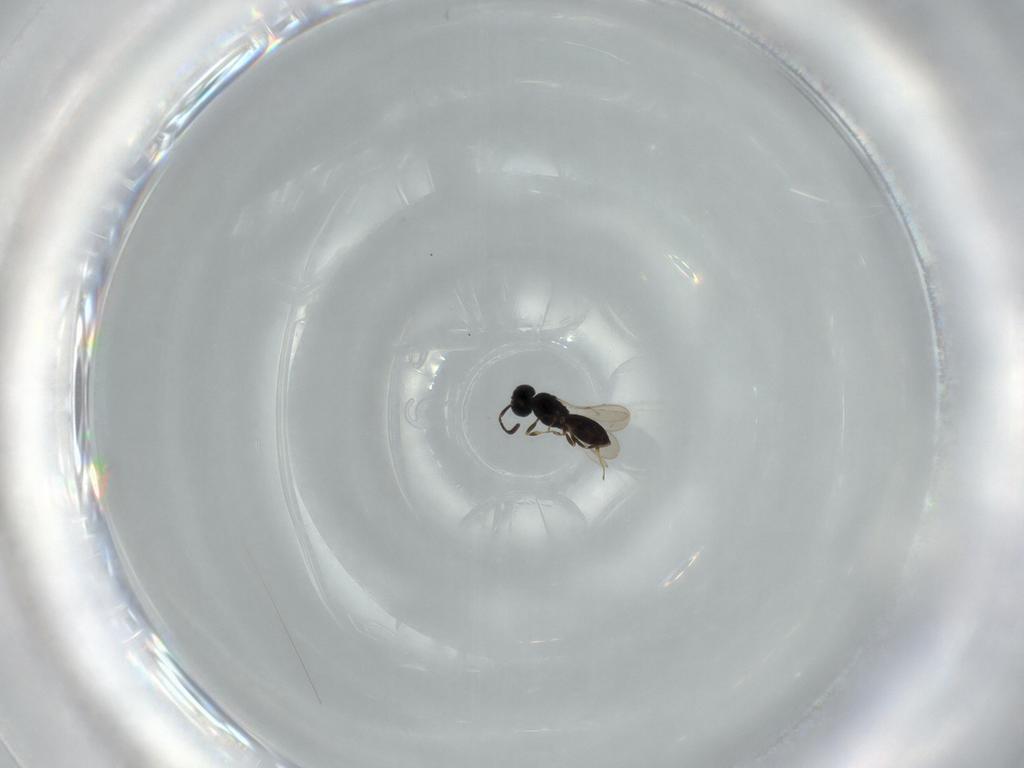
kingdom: Animalia
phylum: Arthropoda
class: Insecta
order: Hymenoptera
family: Scelionidae
